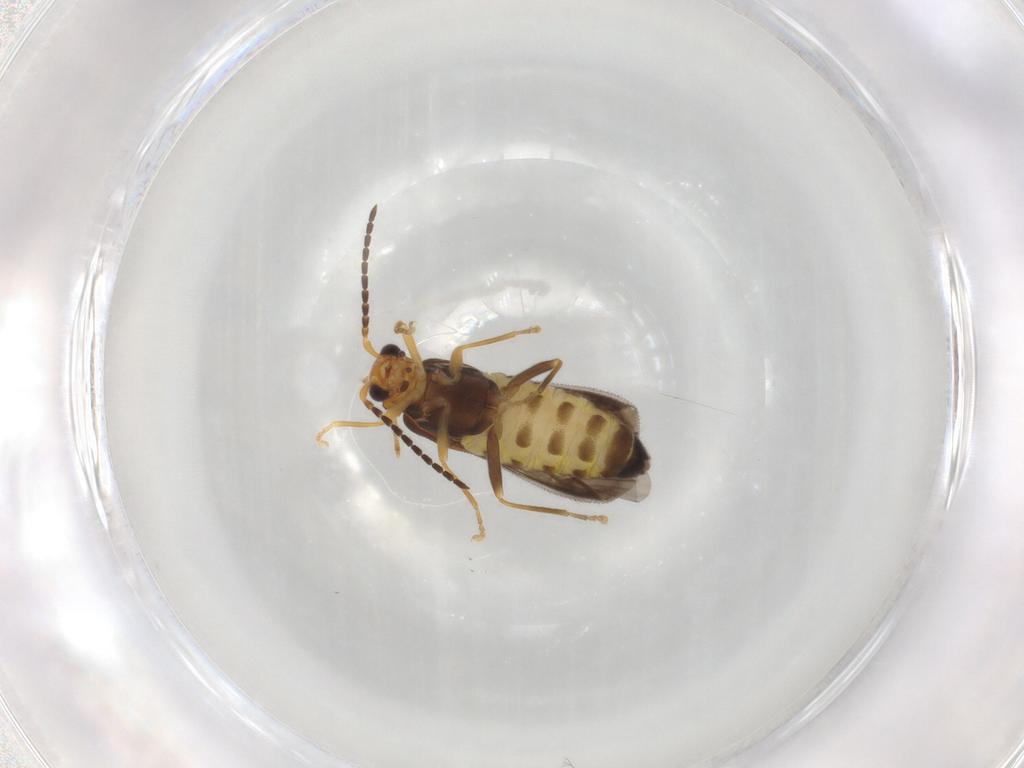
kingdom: Animalia
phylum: Arthropoda
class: Insecta
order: Coleoptera
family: Cantharidae
